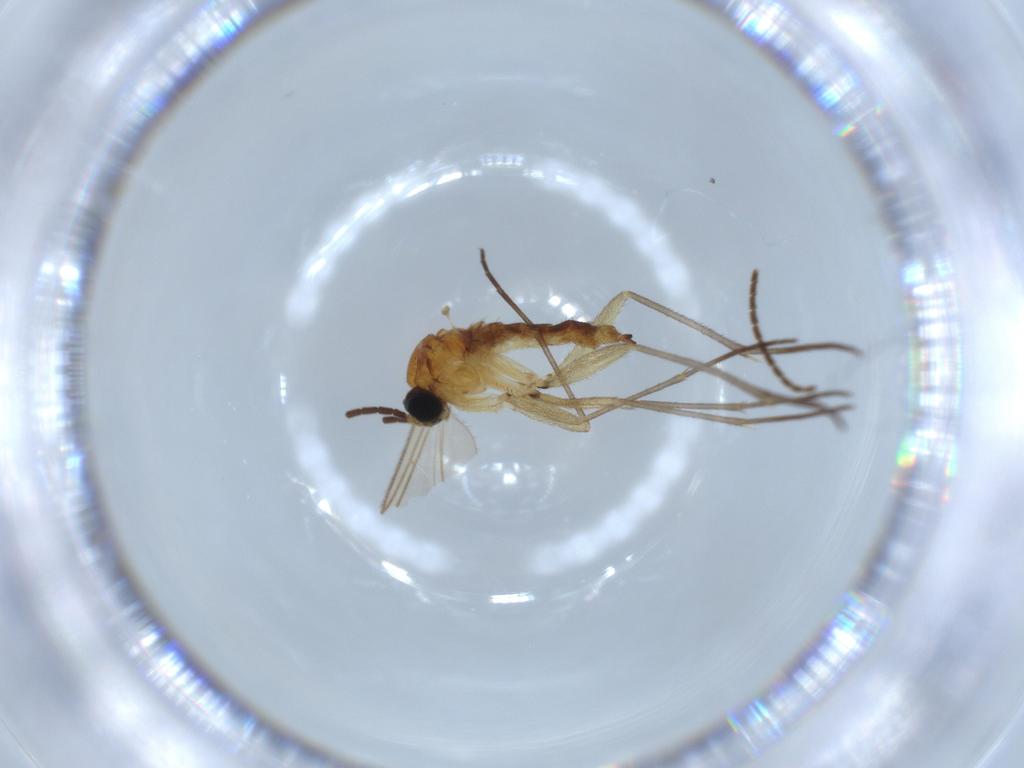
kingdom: Animalia
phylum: Arthropoda
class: Insecta
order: Diptera
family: Sciaridae
